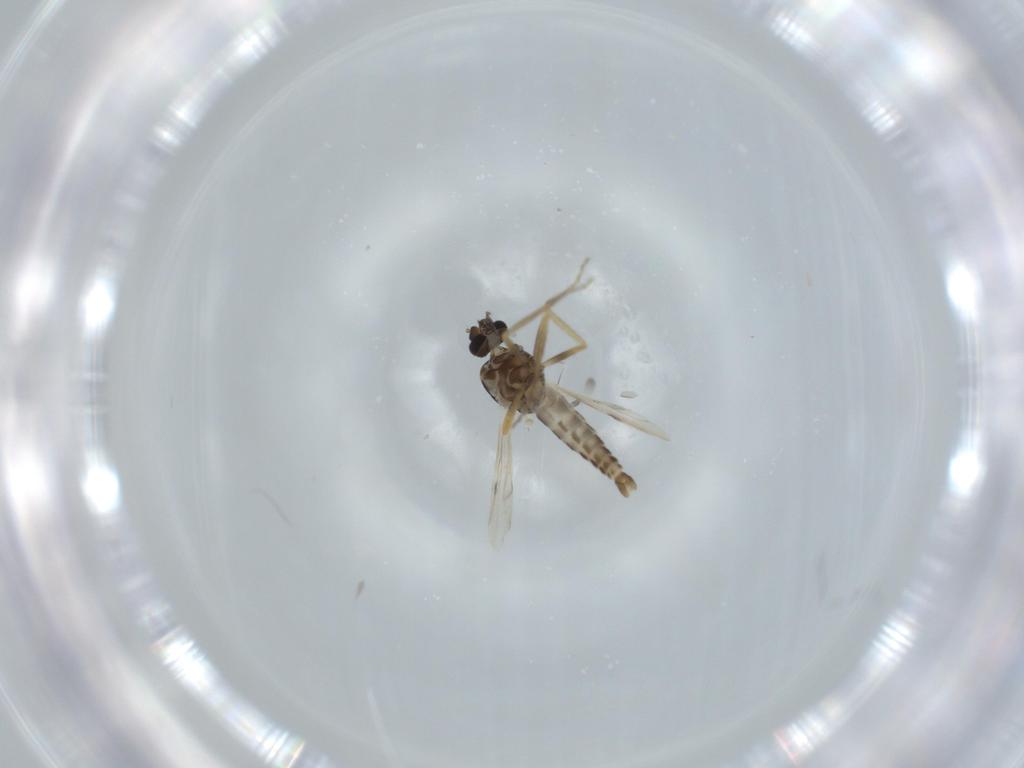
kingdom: Animalia
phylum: Arthropoda
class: Insecta
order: Diptera
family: Ceratopogonidae
